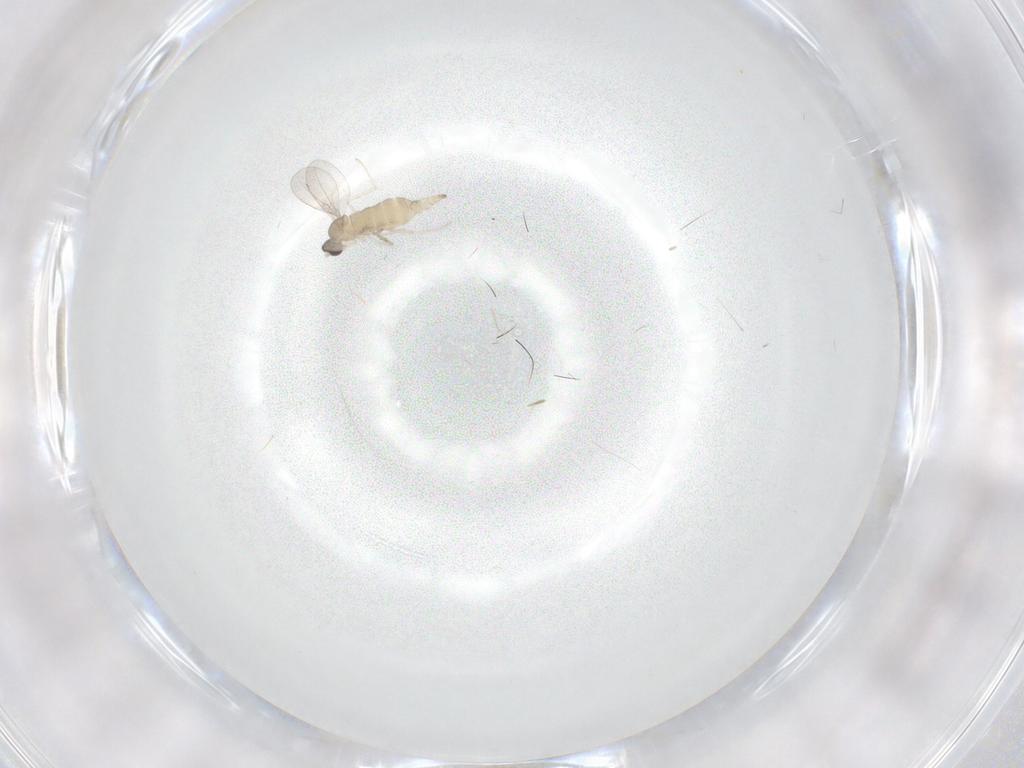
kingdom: Animalia
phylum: Arthropoda
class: Insecta
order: Diptera
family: Cecidomyiidae
